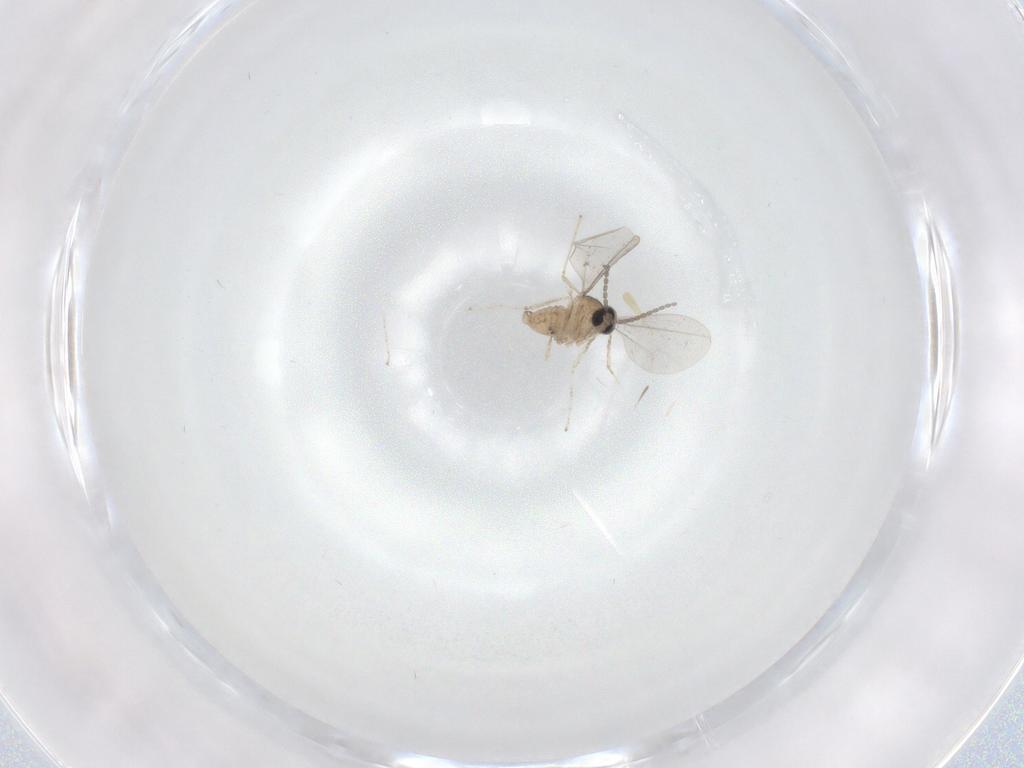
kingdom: Animalia
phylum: Arthropoda
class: Insecta
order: Diptera
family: Cecidomyiidae
